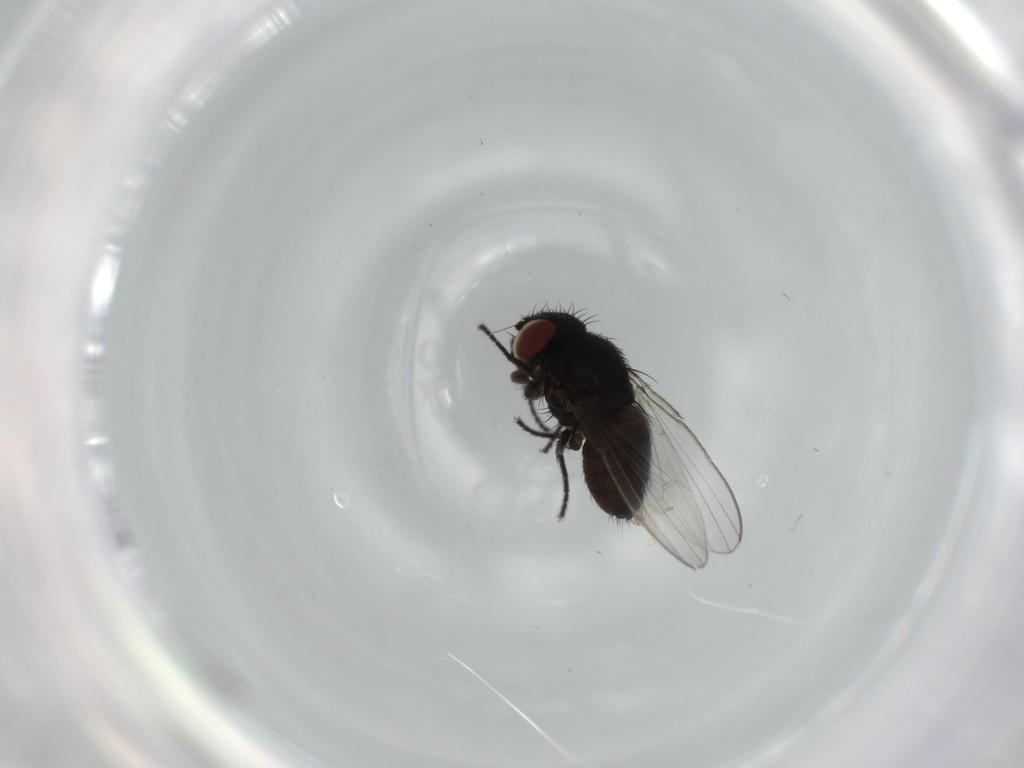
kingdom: Animalia
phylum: Arthropoda
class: Insecta
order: Diptera
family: Milichiidae
